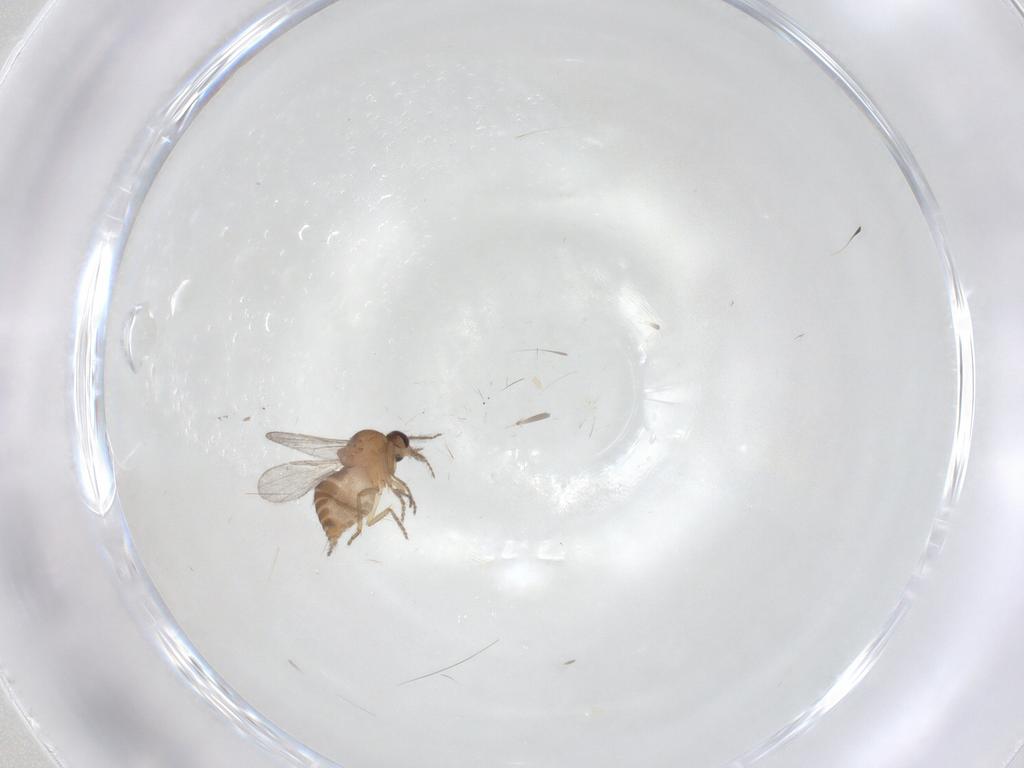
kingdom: Animalia
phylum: Arthropoda
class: Insecta
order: Diptera
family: Ceratopogonidae
